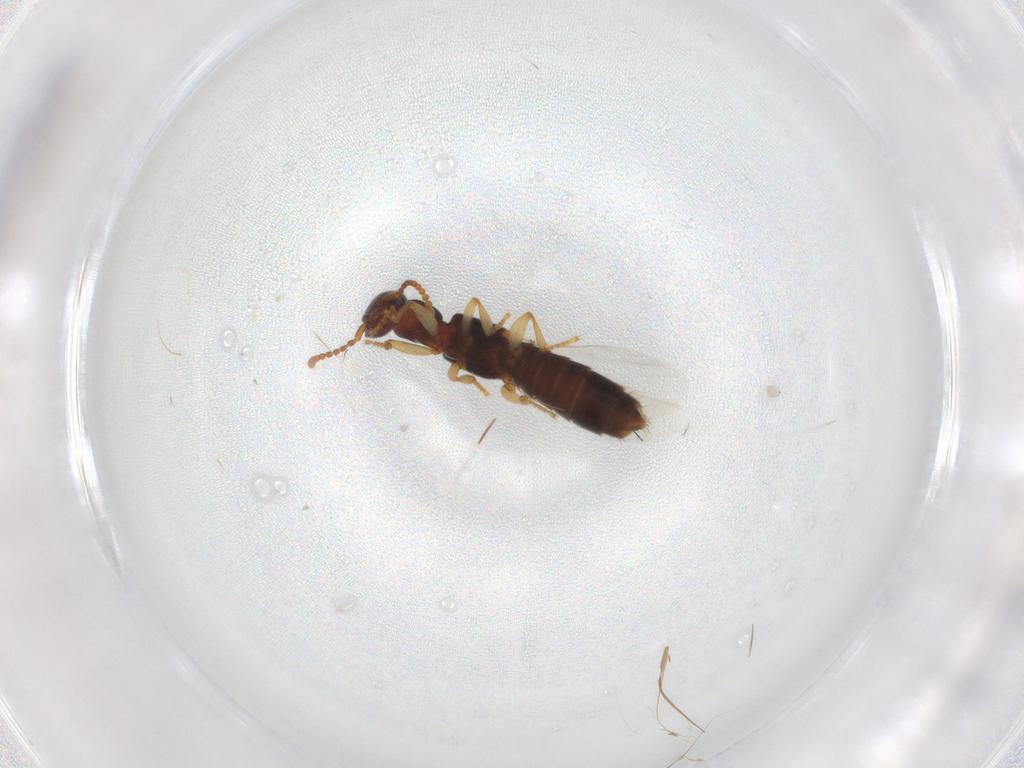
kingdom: Animalia
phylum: Arthropoda
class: Insecta
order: Coleoptera
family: Staphylinidae
